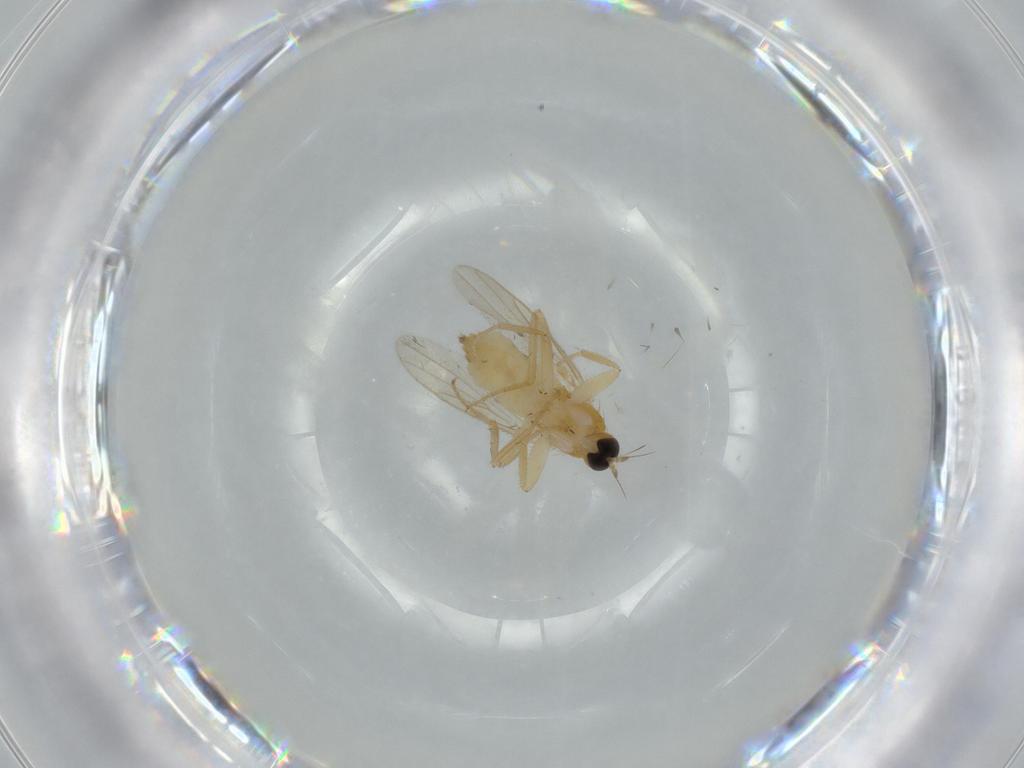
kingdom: Animalia
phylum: Arthropoda
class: Insecta
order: Diptera
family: Hybotidae
